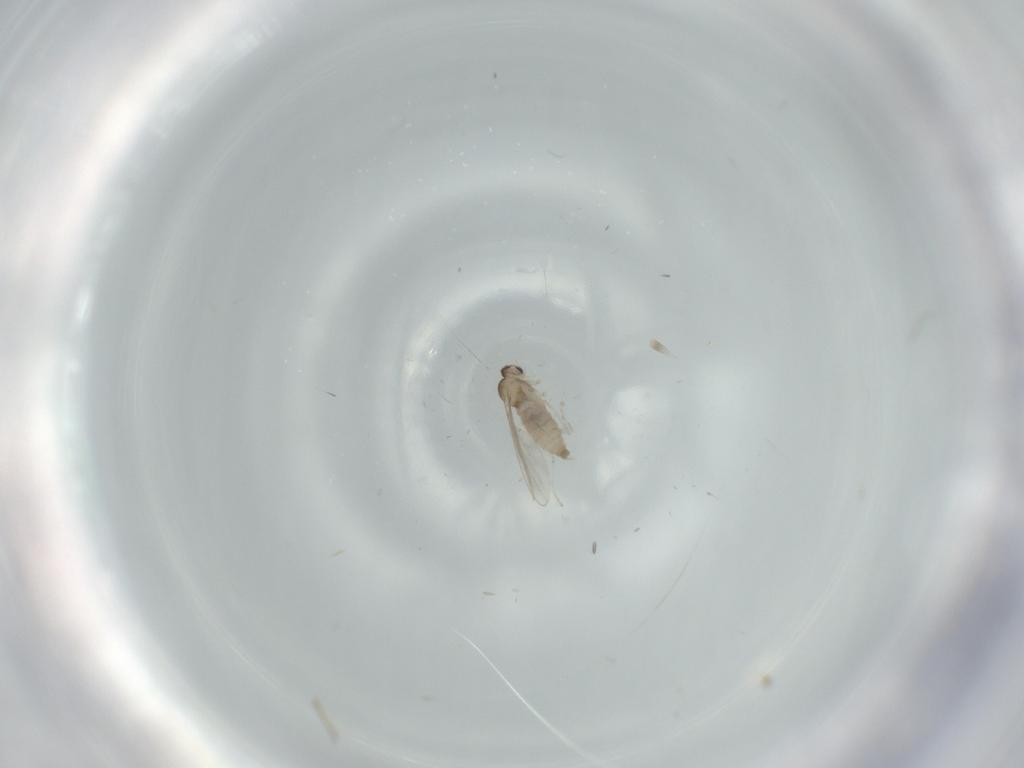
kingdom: Animalia
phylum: Arthropoda
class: Insecta
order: Diptera
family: Cecidomyiidae
